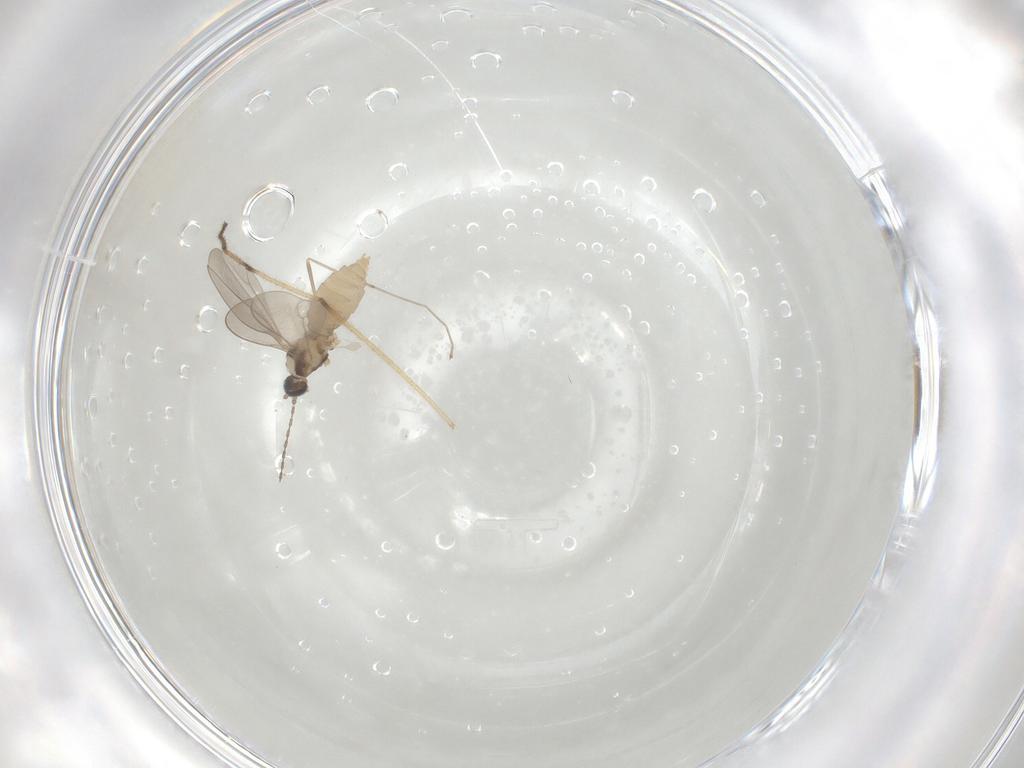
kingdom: Animalia
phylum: Arthropoda
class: Insecta
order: Diptera
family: Cecidomyiidae
